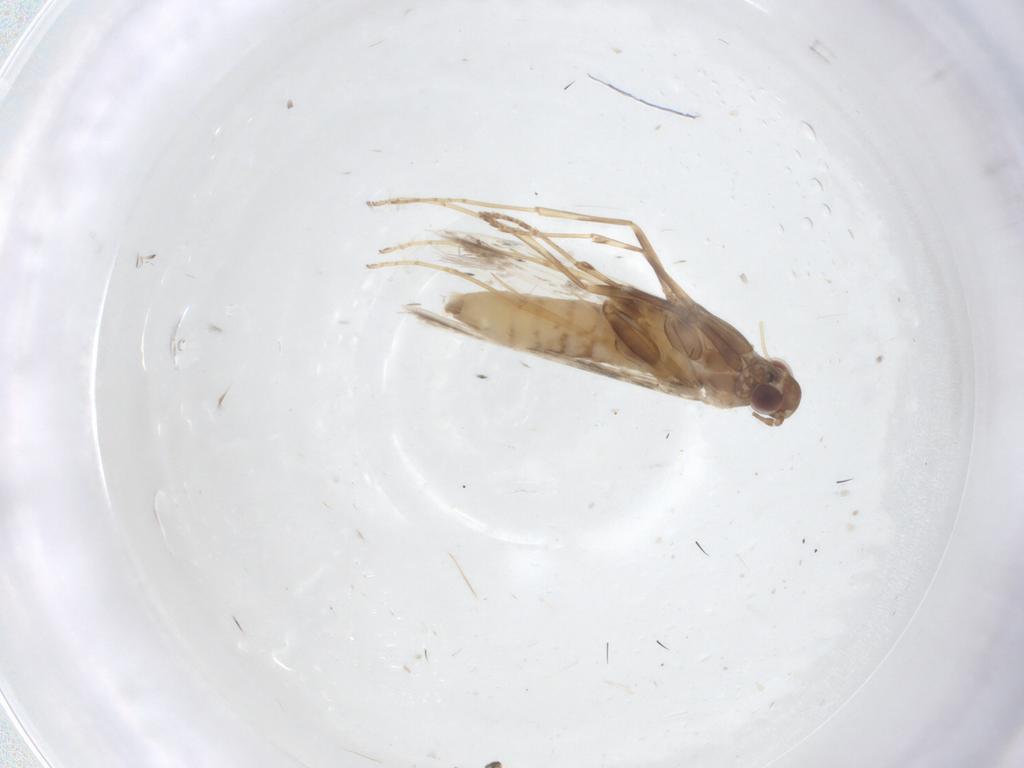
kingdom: Animalia
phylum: Arthropoda
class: Insecta
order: Lepidoptera
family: Gracillariidae
